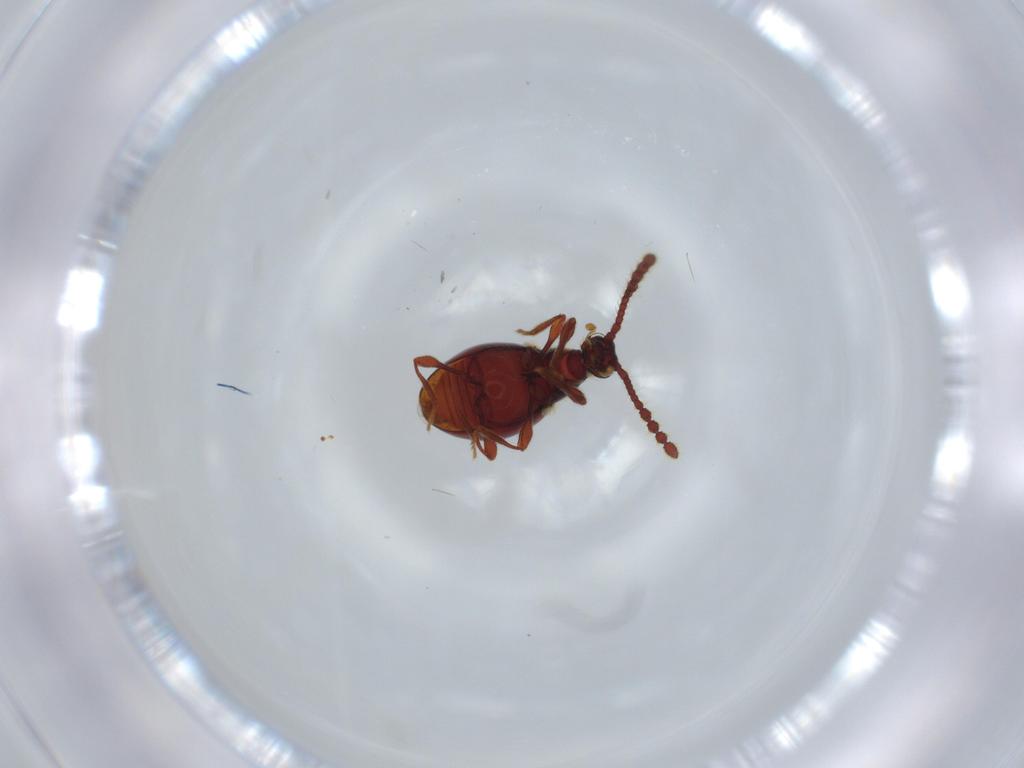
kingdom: Animalia
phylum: Arthropoda
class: Insecta
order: Coleoptera
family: Staphylinidae
